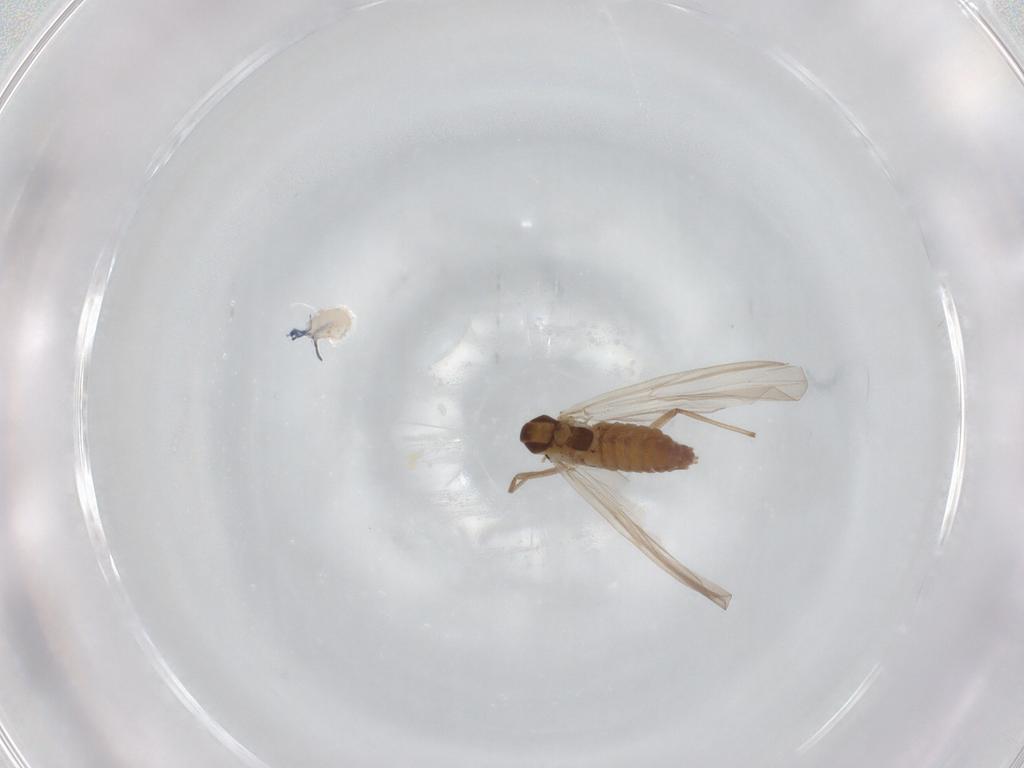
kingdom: Animalia
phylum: Arthropoda
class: Insecta
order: Diptera
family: Chironomidae
